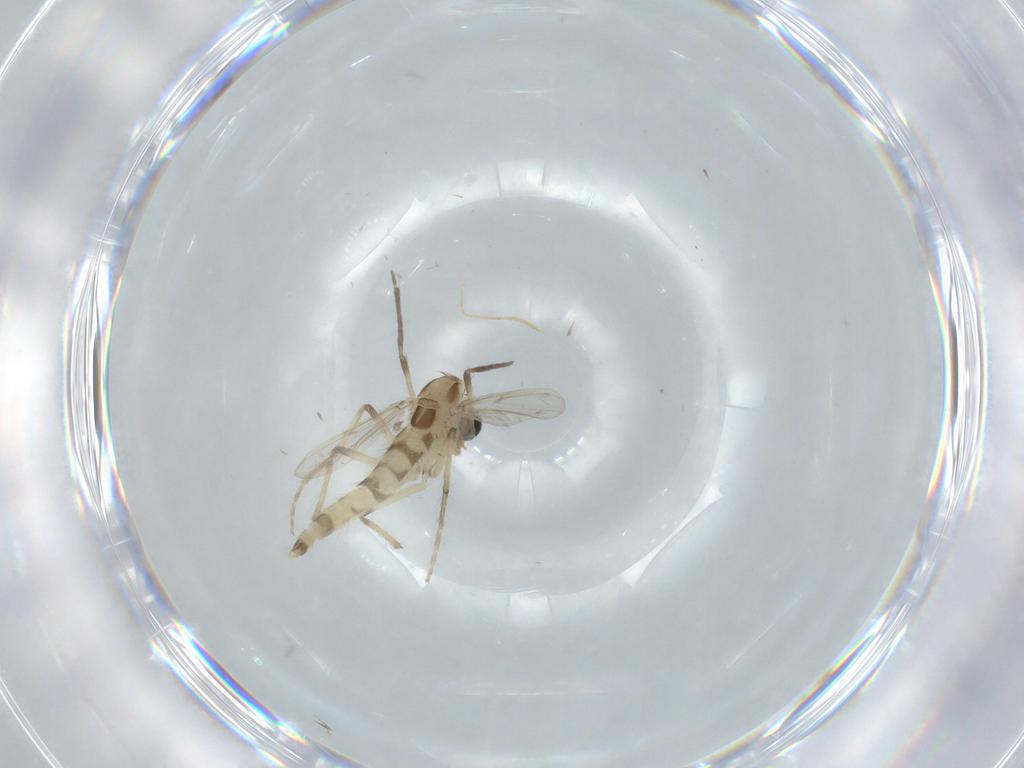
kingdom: Animalia
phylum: Arthropoda
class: Insecta
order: Diptera
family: Chironomidae
